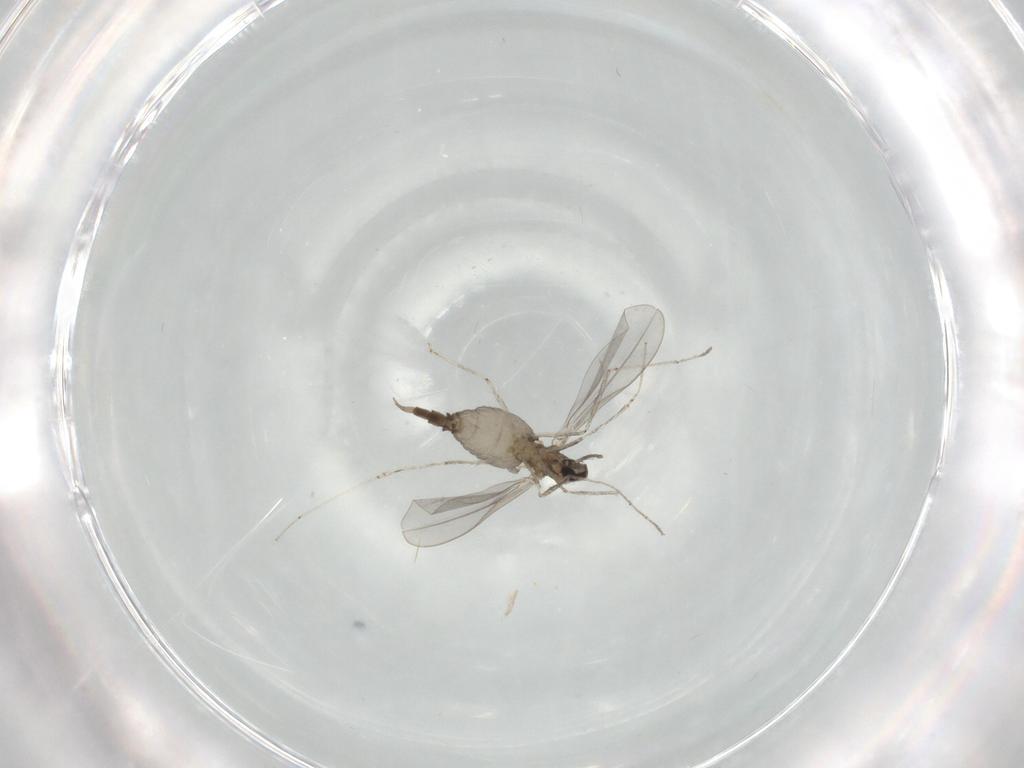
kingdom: Animalia
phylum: Arthropoda
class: Insecta
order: Diptera
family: Cecidomyiidae
